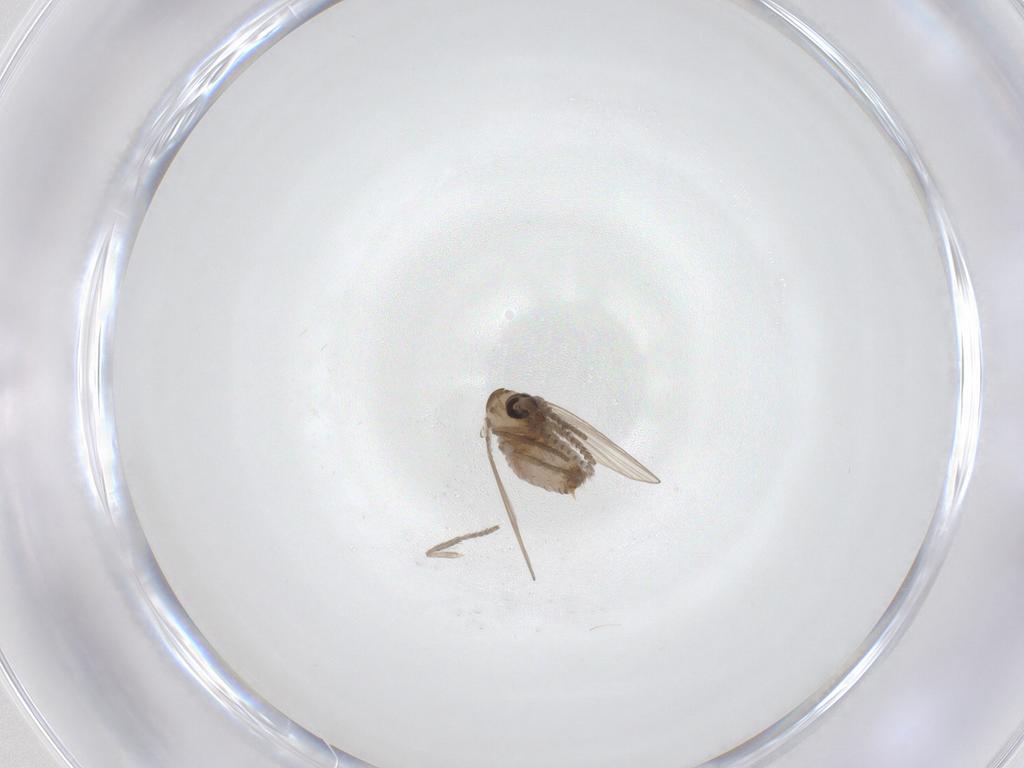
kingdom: Animalia
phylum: Arthropoda
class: Insecta
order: Diptera
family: Psychodidae
